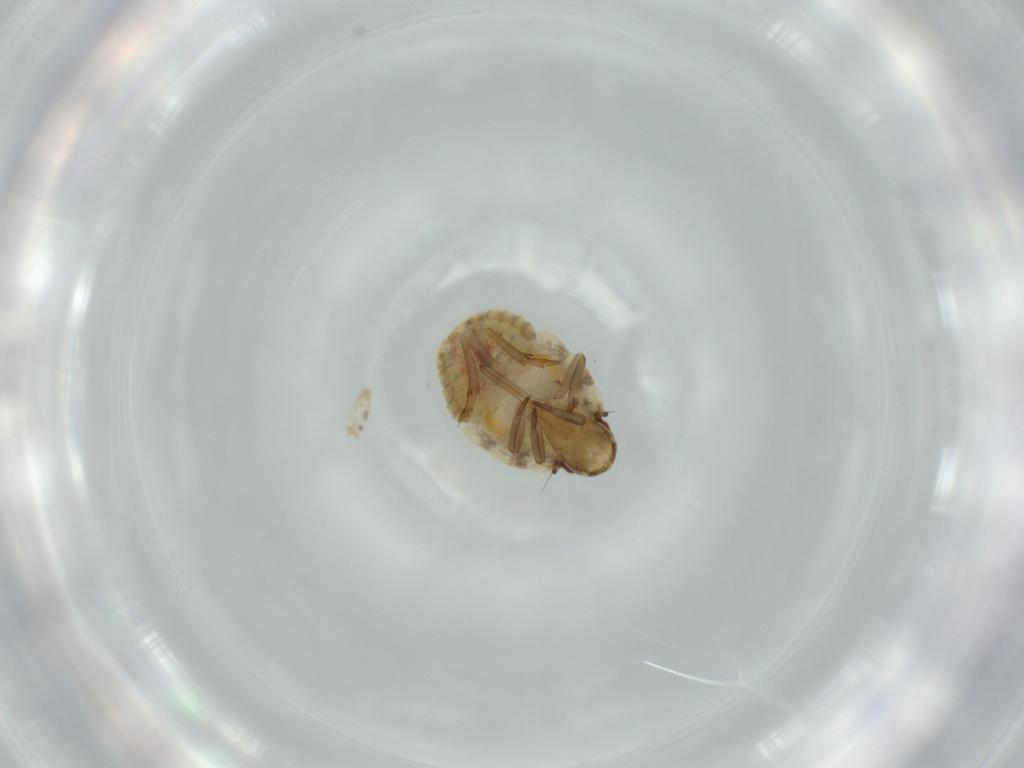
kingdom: Animalia
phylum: Arthropoda
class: Insecta
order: Hemiptera
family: Flatidae
